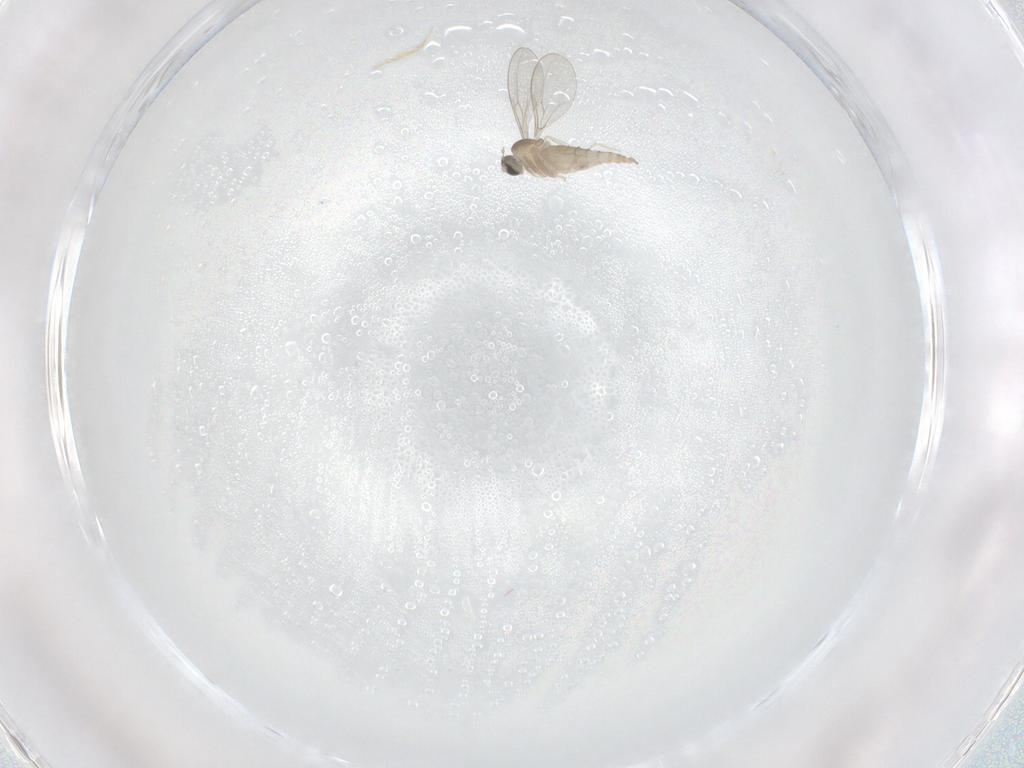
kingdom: Animalia
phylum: Arthropoda
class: Insecta
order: Diptera
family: Cecidomyiidae
